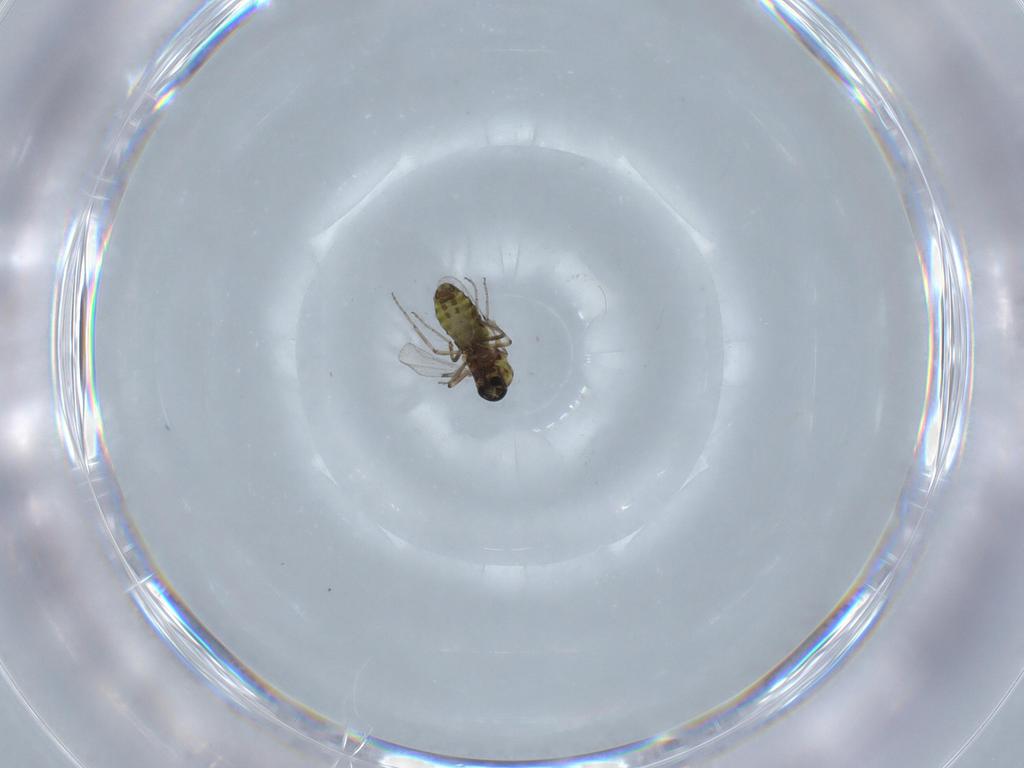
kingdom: Animalia
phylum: Arthropoda
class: Insecta
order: Diptera
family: Ceratopogonidae
